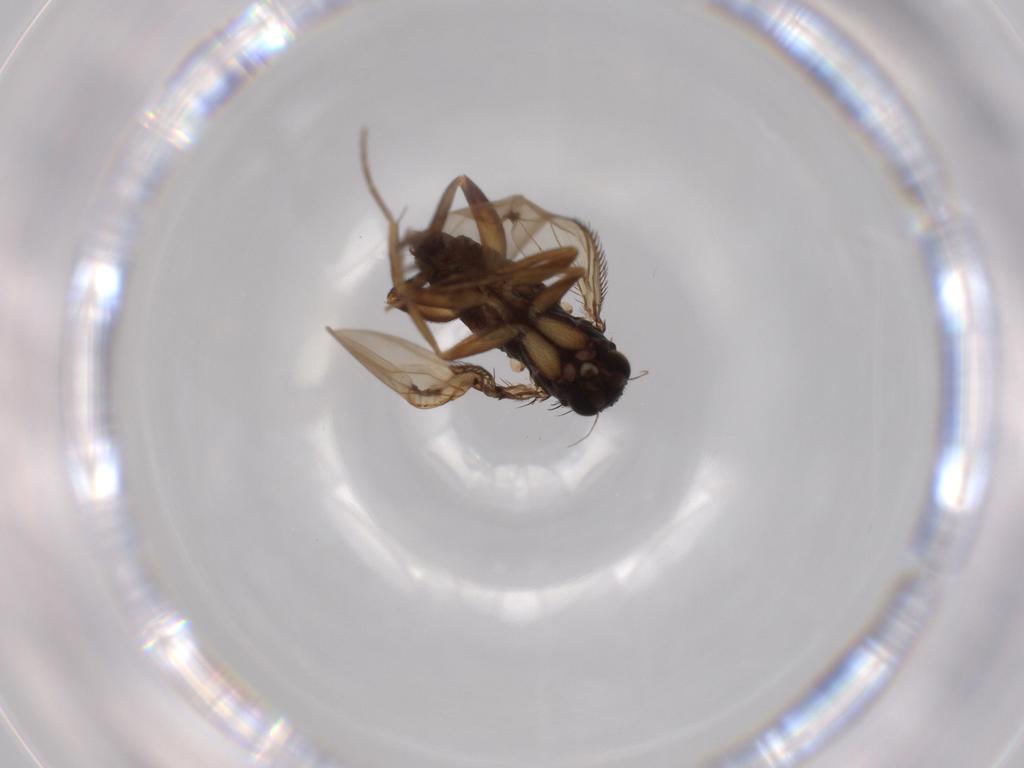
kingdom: Animalia
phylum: Arthropoda
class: Insecta
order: Diptera
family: Phoridae
